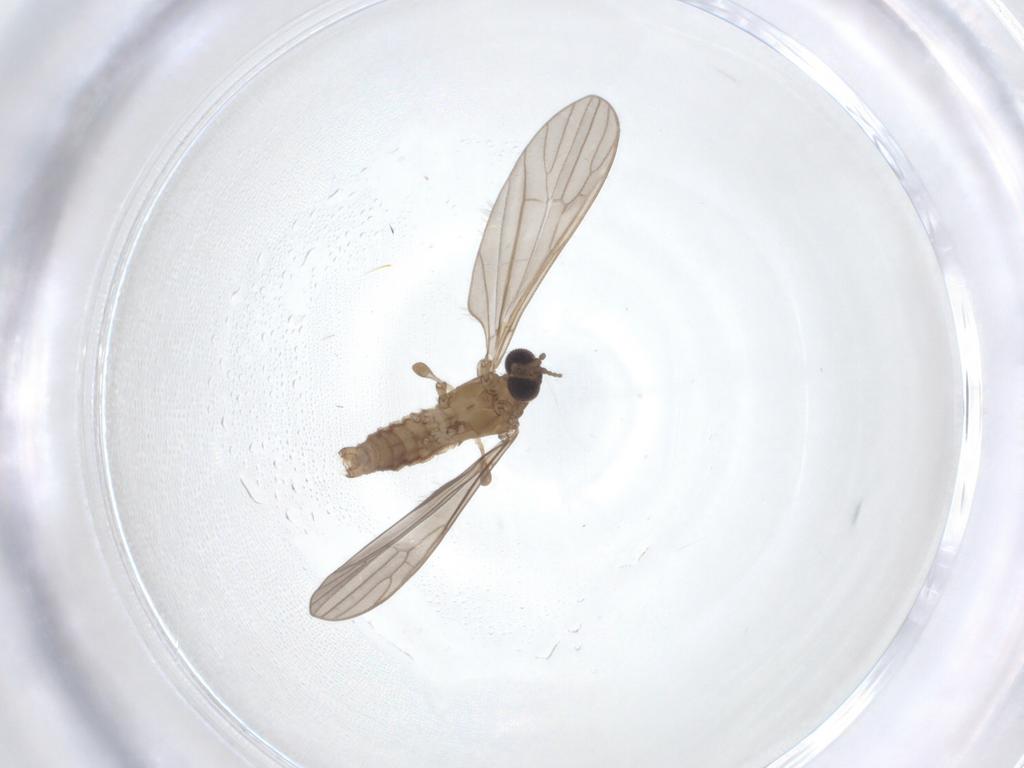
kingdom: Animalia
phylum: Arthropoda
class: Insecta
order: Diptera
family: Limoniidae
